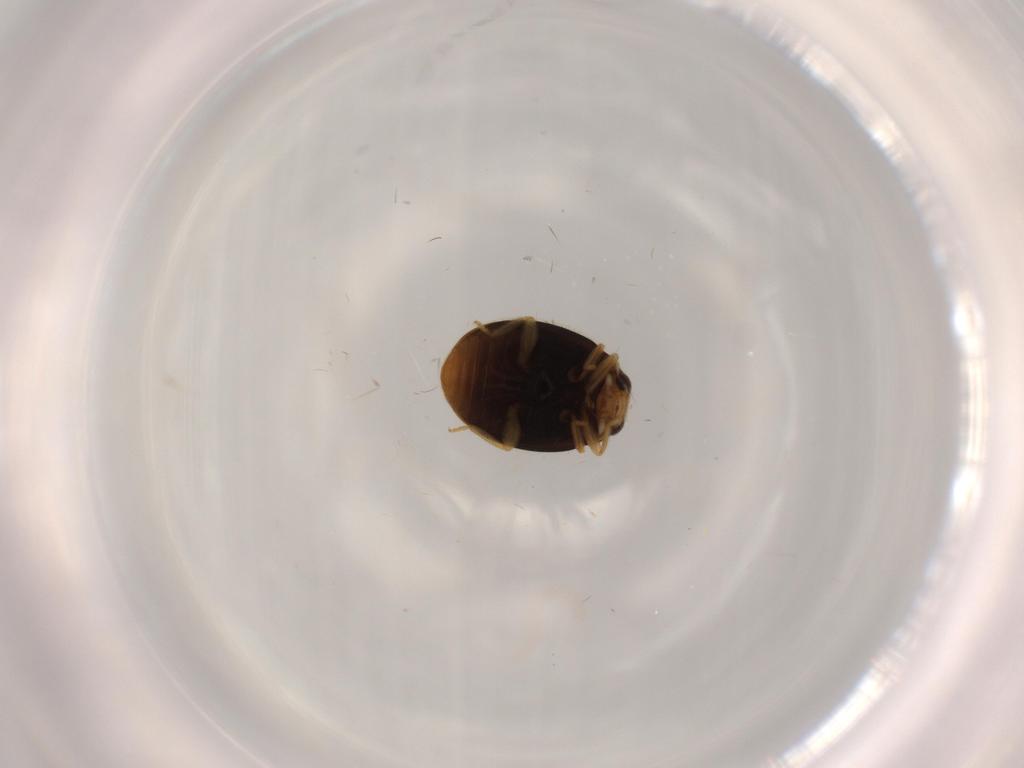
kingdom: Animalia
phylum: Arthropoda
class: Insecta
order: Coleoptera
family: Coccinellidae
